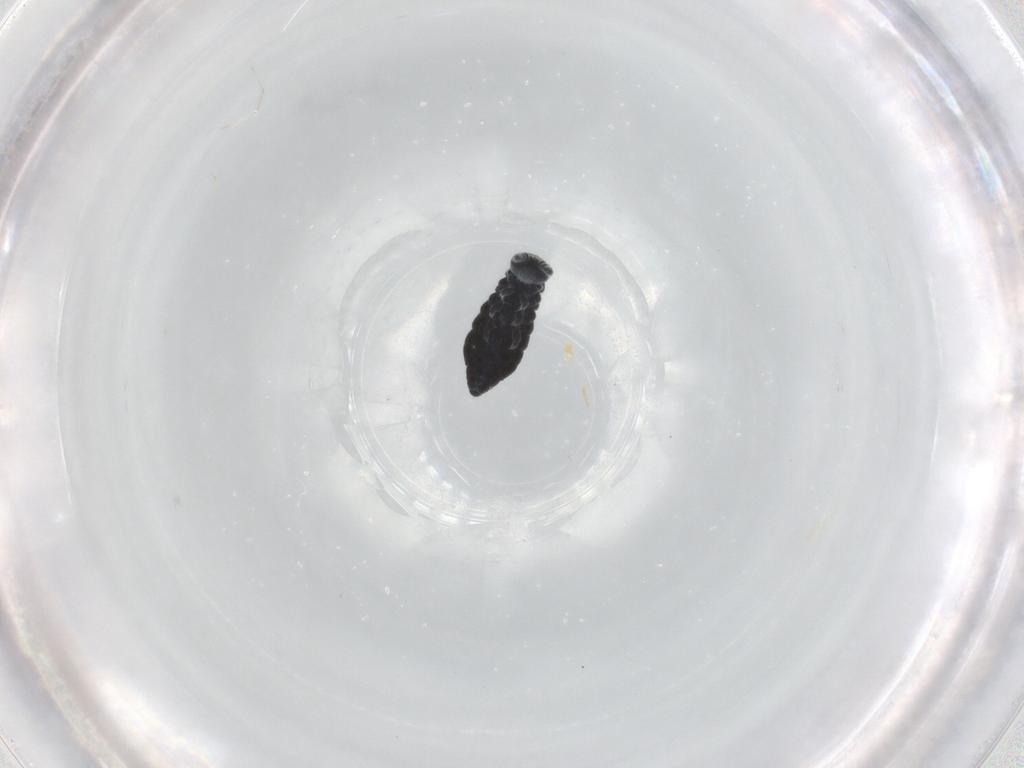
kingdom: Animalia
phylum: Arthropoda
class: Collembola
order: Poduromorpha
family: Hypogastruridae
